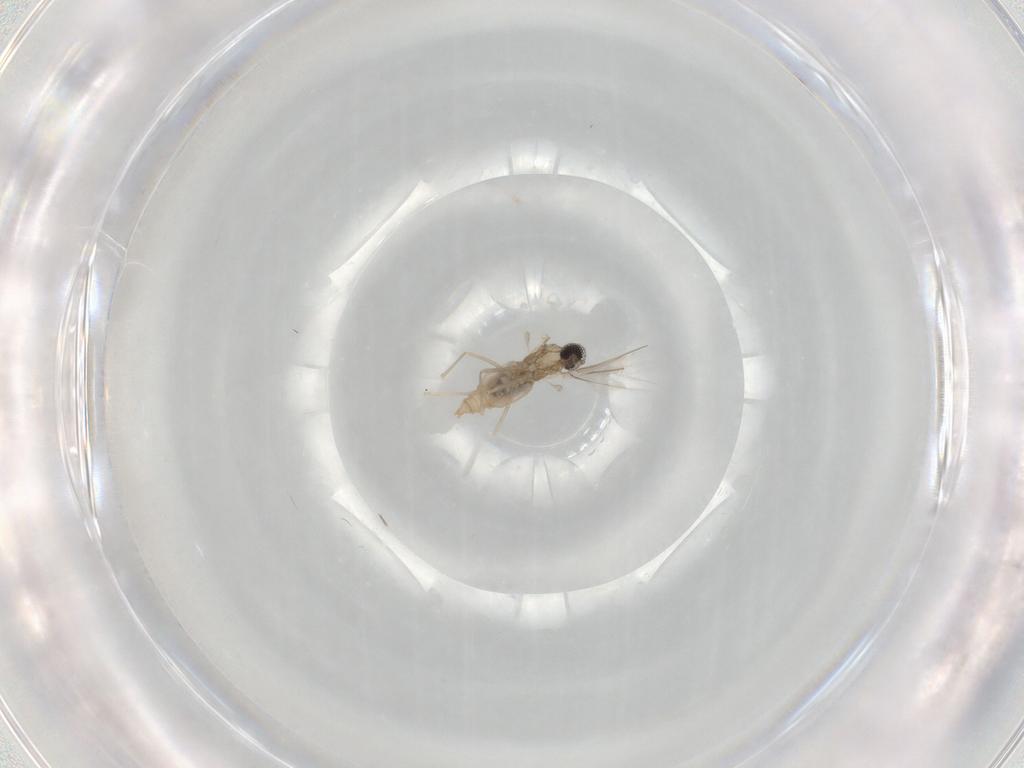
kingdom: Animalia
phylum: Arthropoda
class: Insecta
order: Diptera
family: Cecidomyiidae
